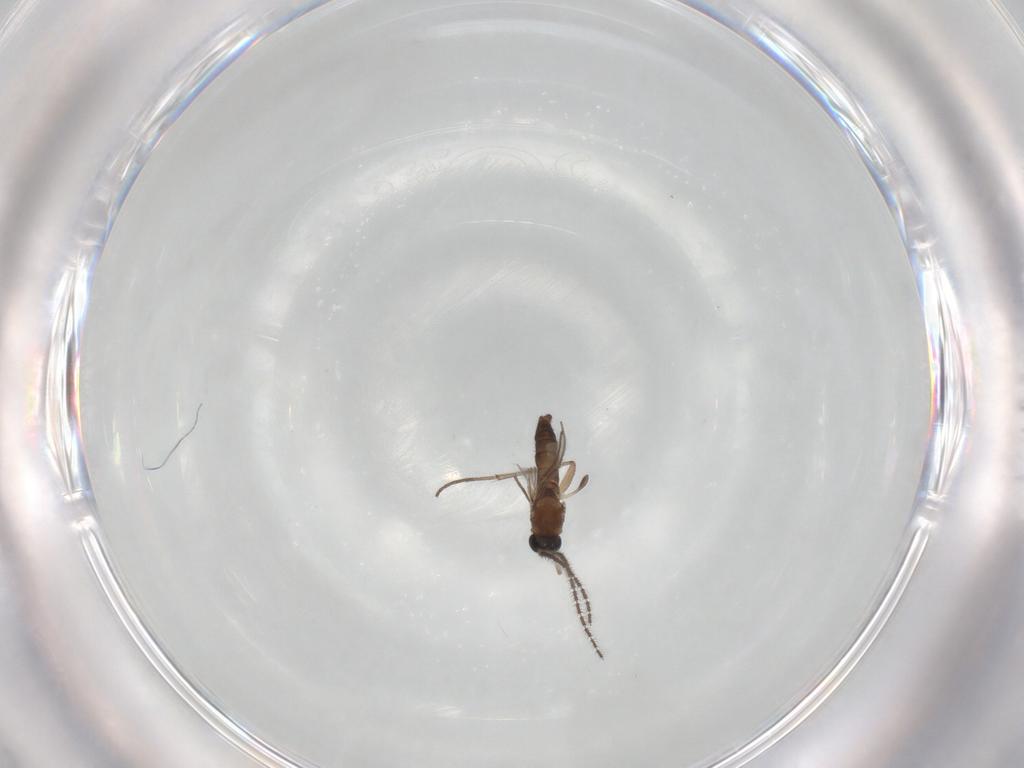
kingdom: Animalia
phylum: Arthropoda
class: Insecta
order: Diptera
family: Sciaridae
